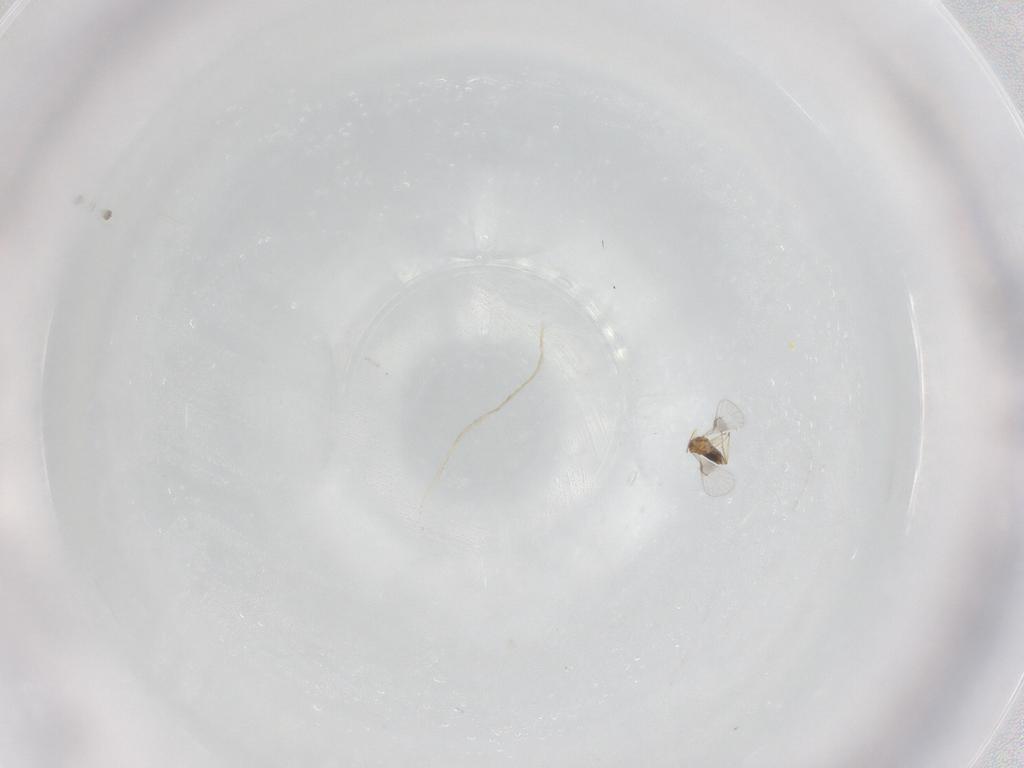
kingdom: Animalia
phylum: Arthropoda
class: Insecta
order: Hymenoptera
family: Trichogrammatidae
